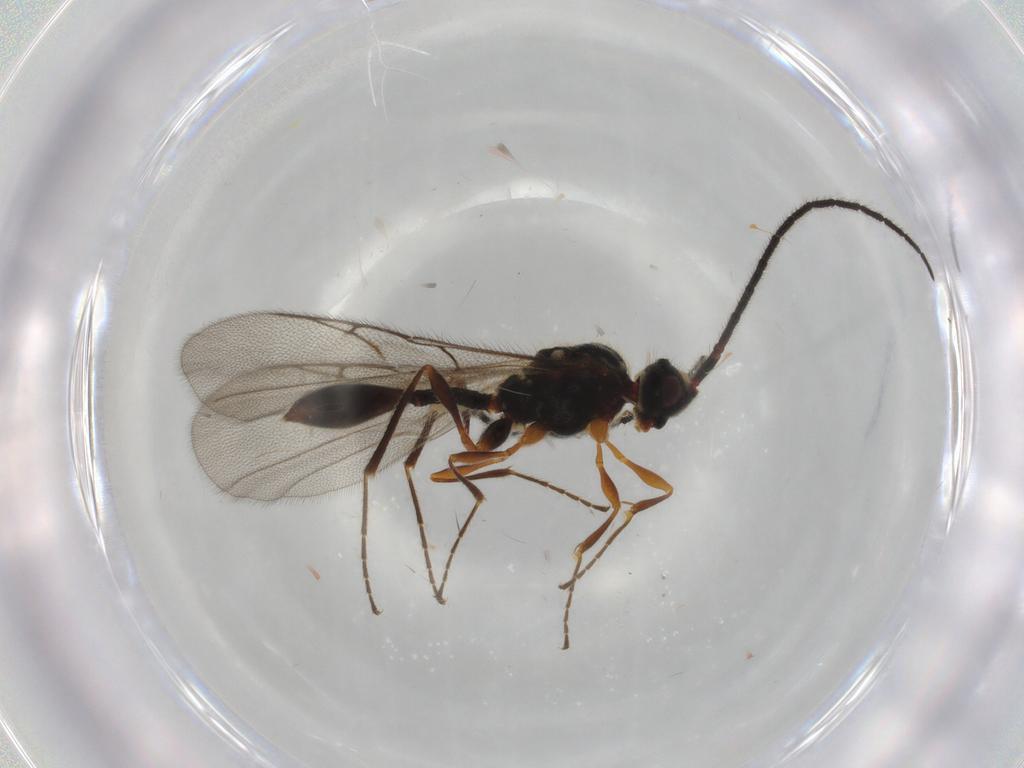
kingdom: Animalia
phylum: Arthropoda
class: Insecta
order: Hymenoptera
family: Diapriidae
